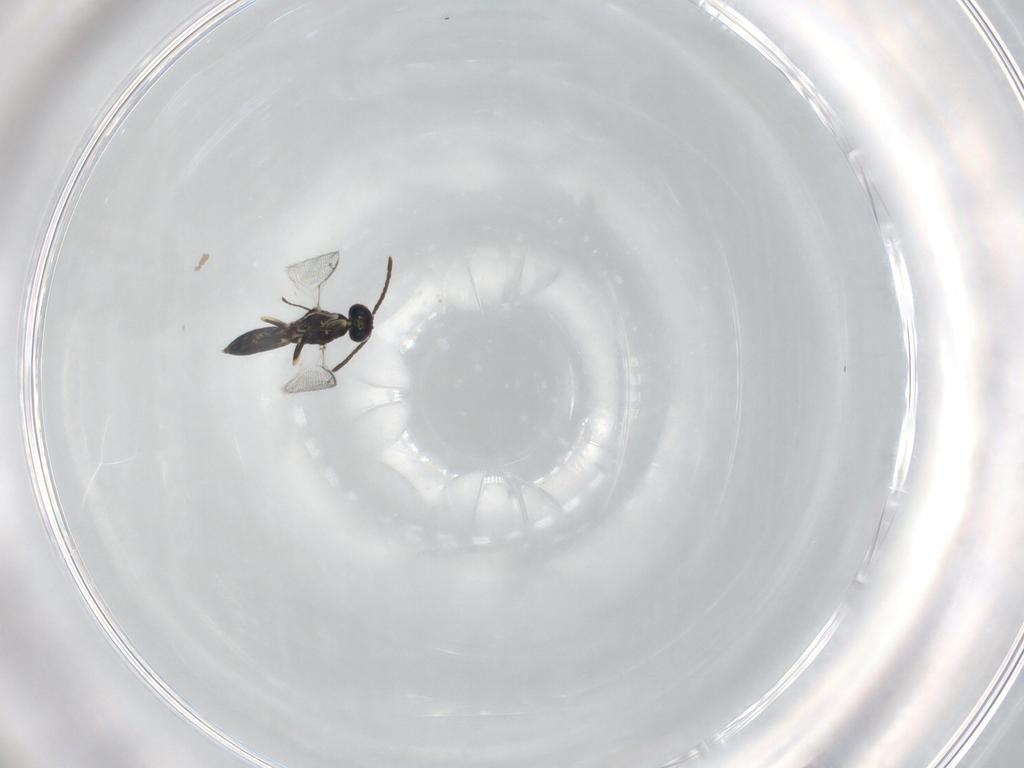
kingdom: Animalia
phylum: Arthropoda
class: Insecta
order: Hymenoptera
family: Eupelmidae
